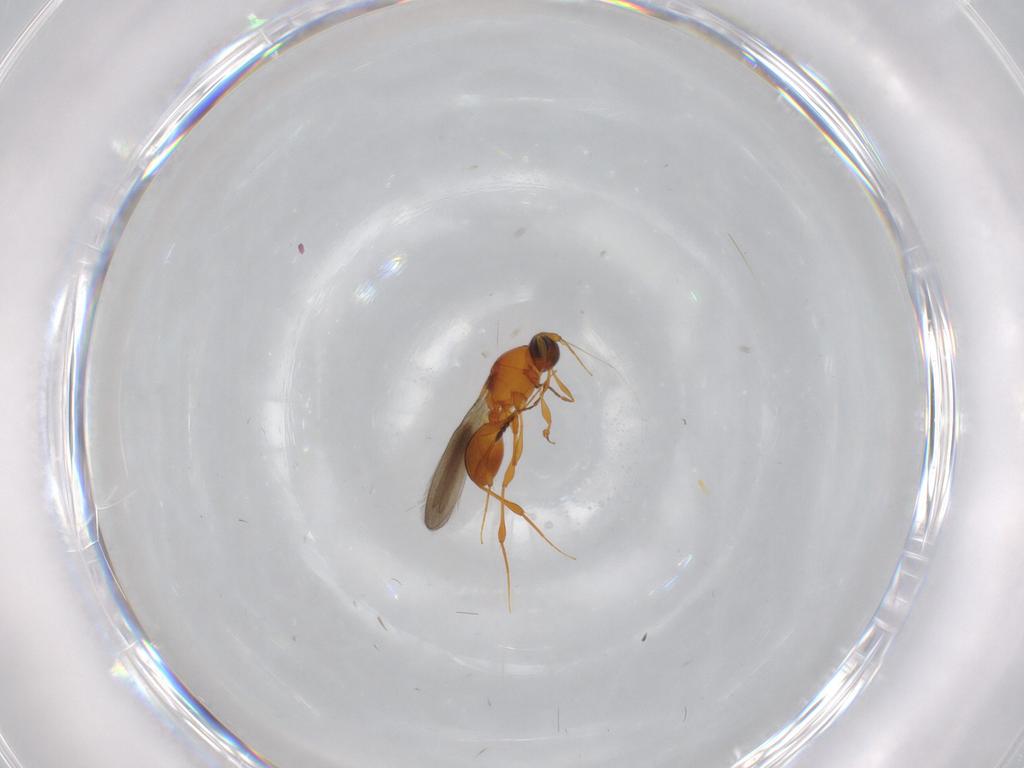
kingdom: Animalia
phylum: Arthropoda
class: Insecta
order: Hymenoptera
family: Platygastridae
